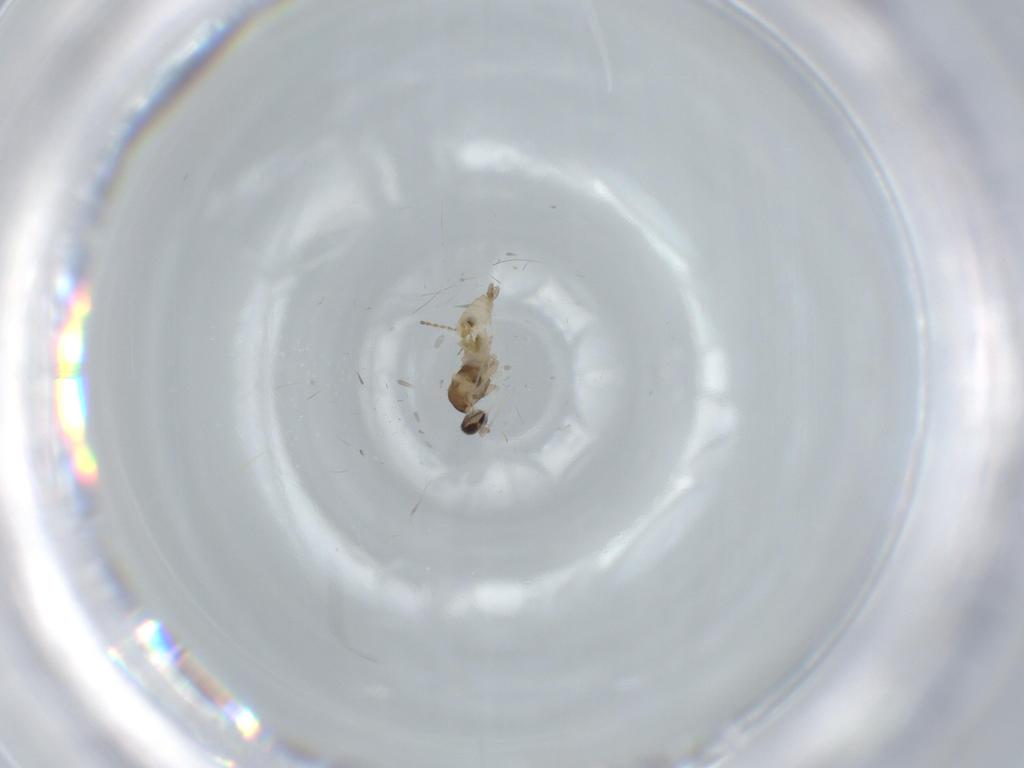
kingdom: Animalia
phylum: Arthropoda
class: Insecta
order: Diptera
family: Ceratopogonidae
